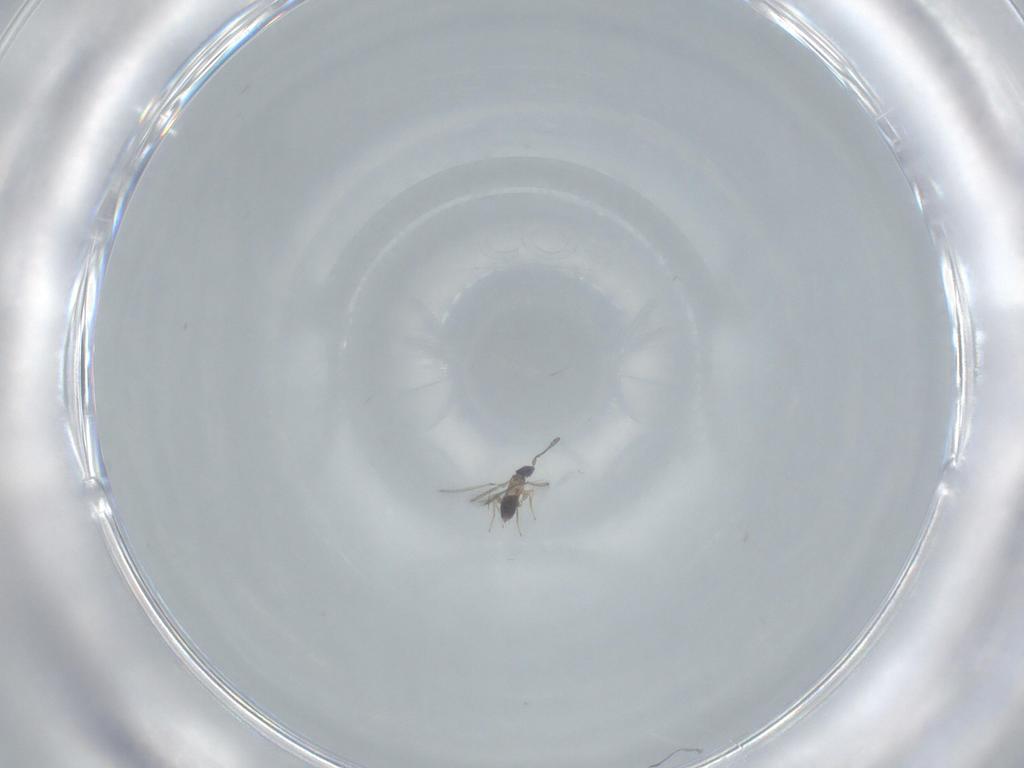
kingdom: Animalia
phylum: Arthropoda
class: Insecta
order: Hymenoptera
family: Mymaridae
